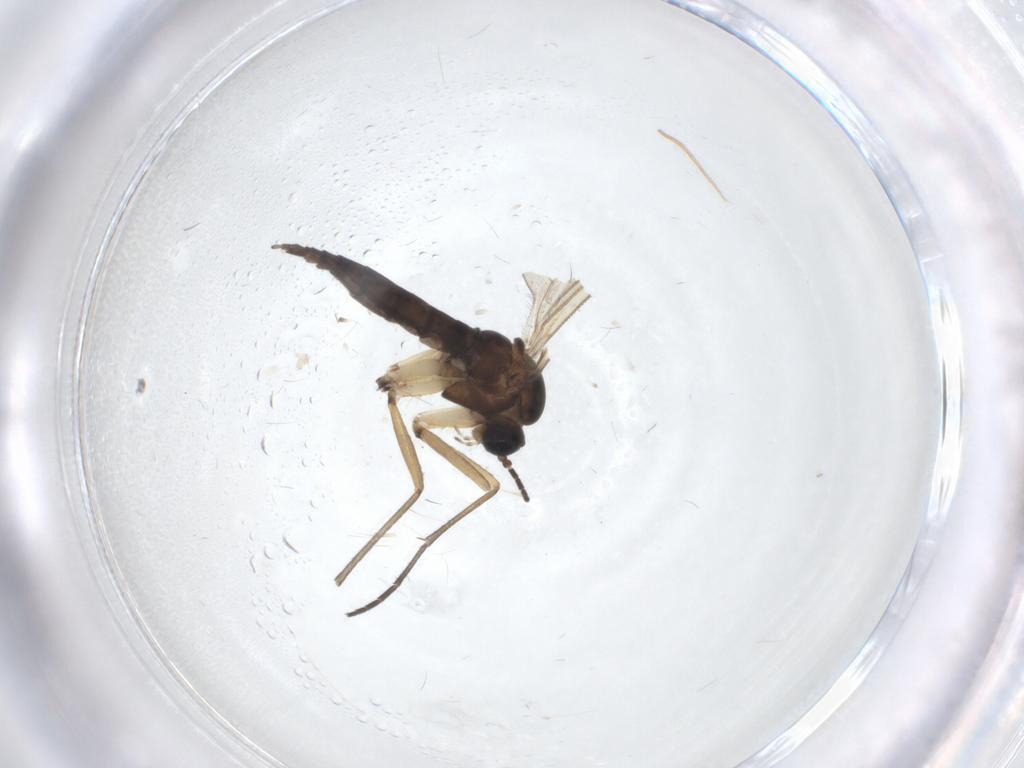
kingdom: Animalia
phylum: Arthropoda
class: Insecta
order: Diptera
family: Sciaridae
